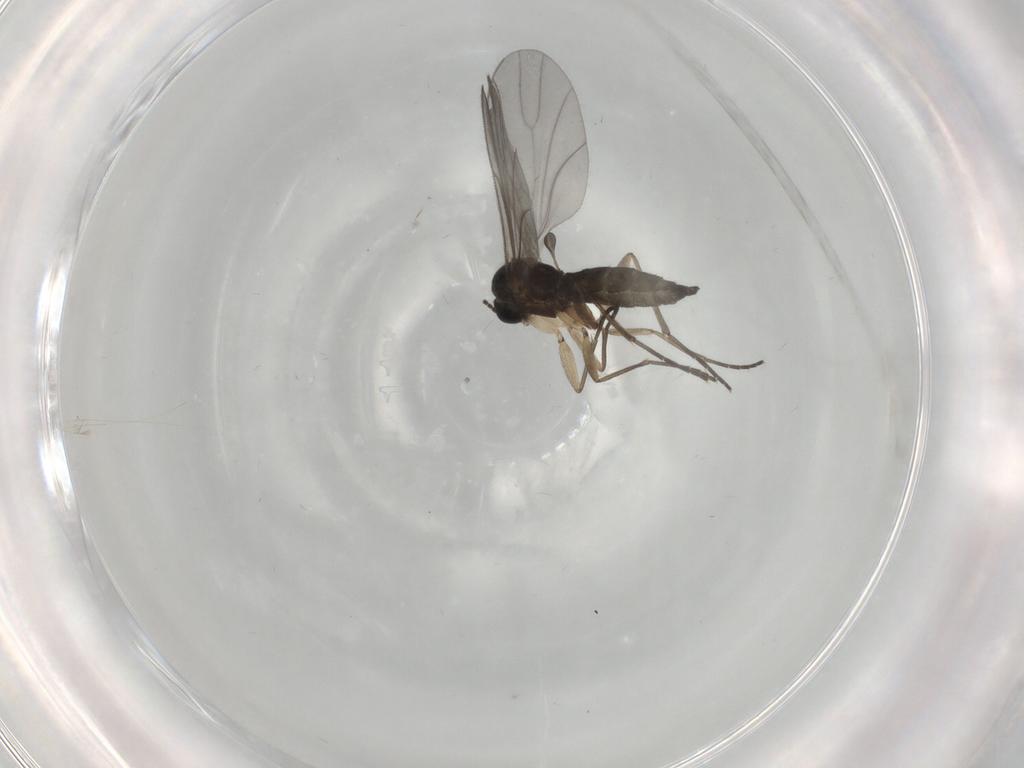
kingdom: Animalia
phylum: Arthropoda
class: Insecta
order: Diptera
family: Sciaridae
